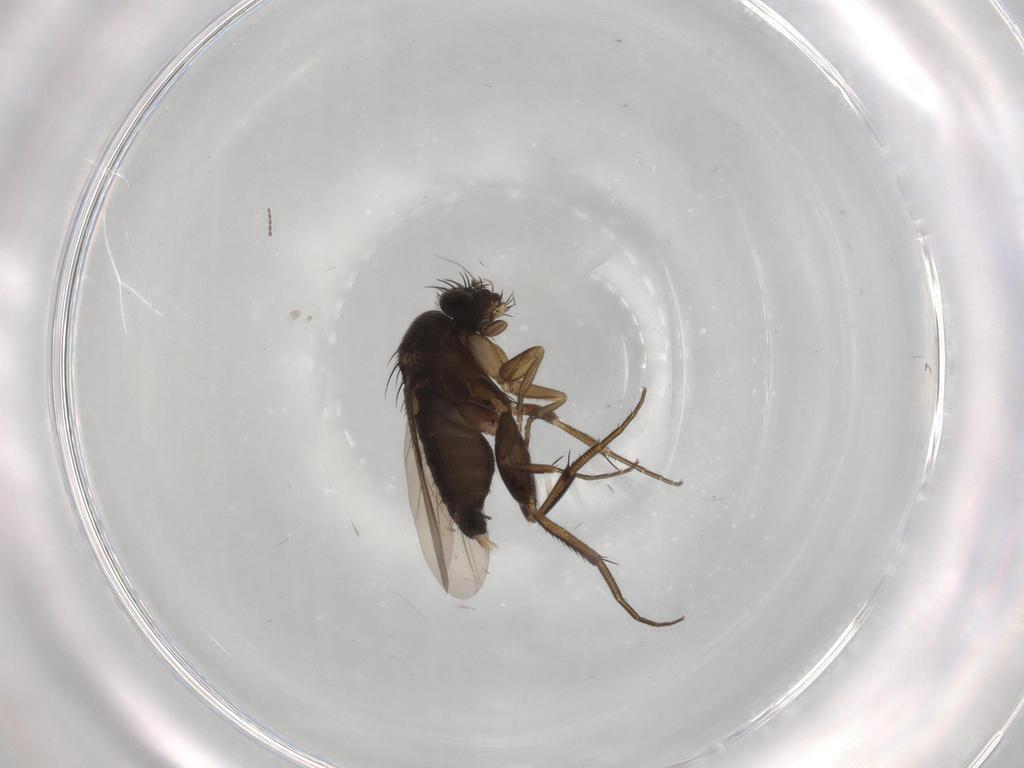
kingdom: Animalia
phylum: Arthropoda
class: Insecta
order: Diptera
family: Phoridae
